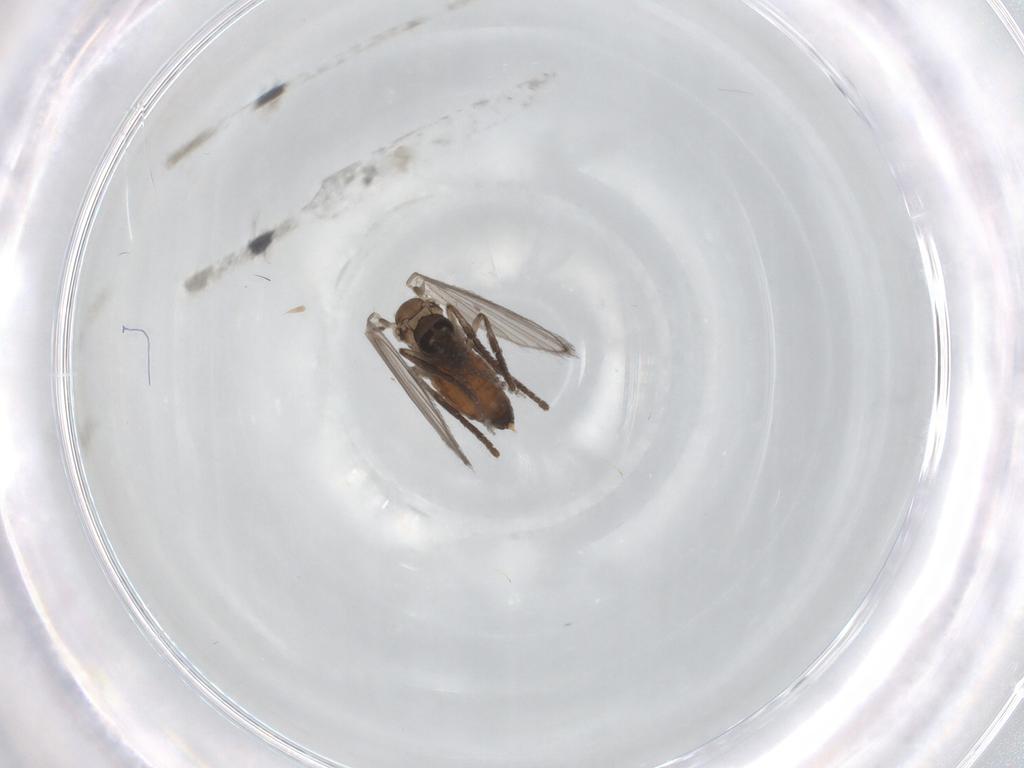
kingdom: Animalia
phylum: Arthropoda
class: Insecta
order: Diptera
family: Psychodidae
